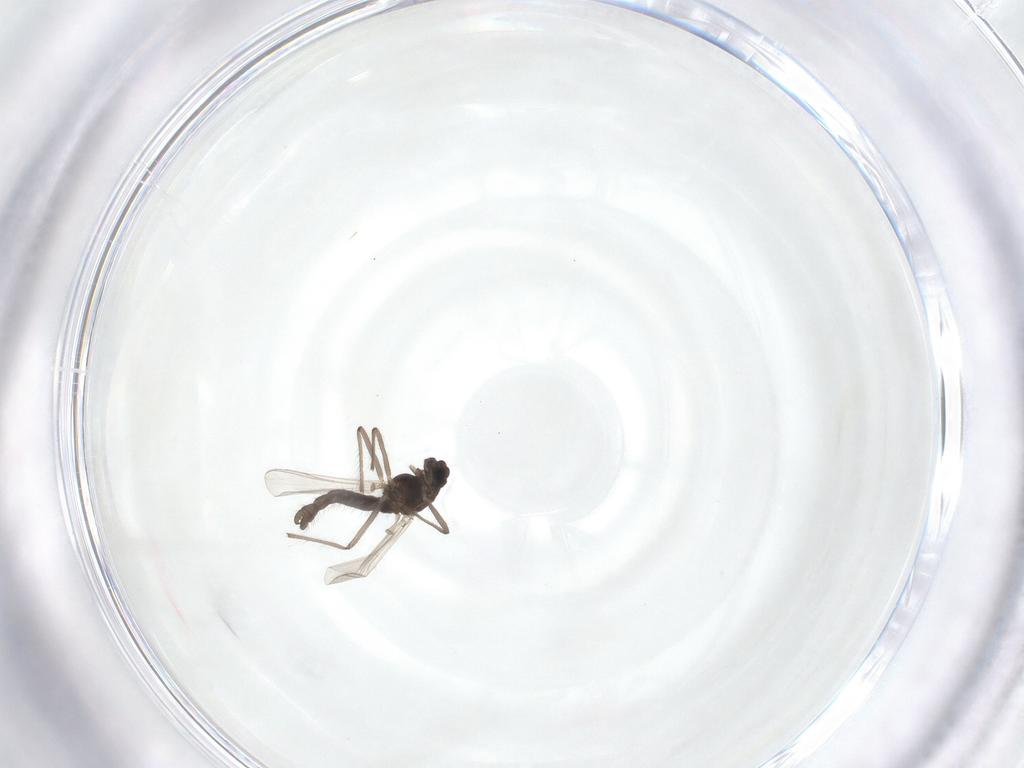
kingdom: Animalia
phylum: Arthropoda
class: Insecta
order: Diptera
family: Chironomidae
